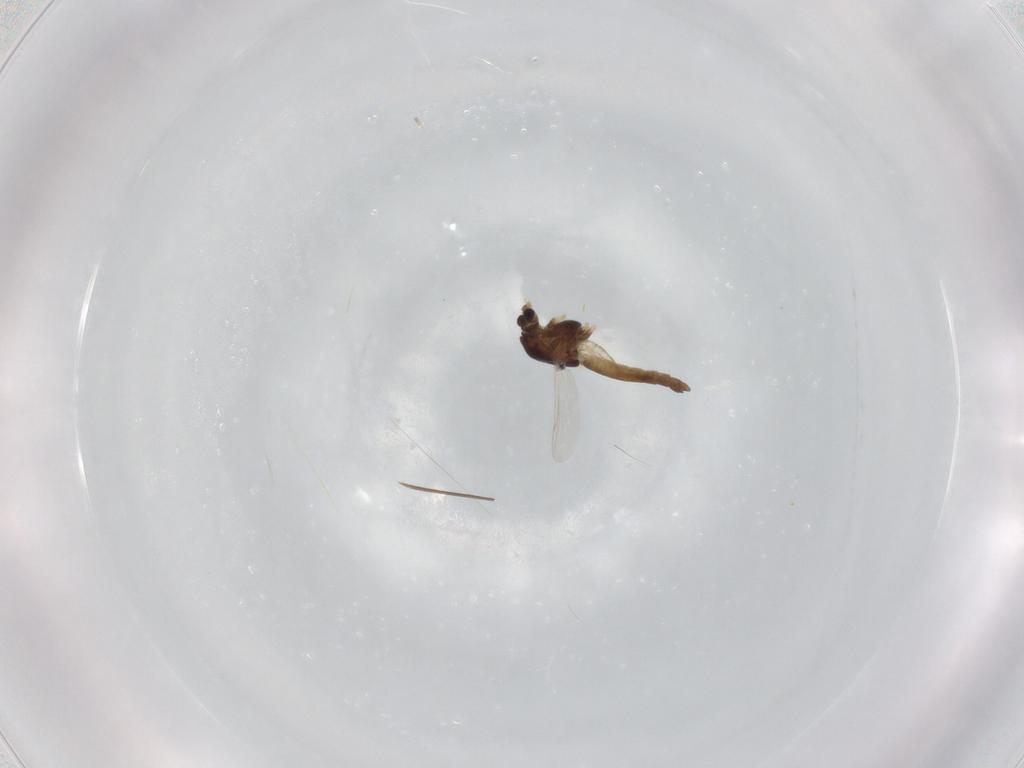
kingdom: Animalia
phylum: Arthropoda
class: Insecta
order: Diptera
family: Chironomidae
